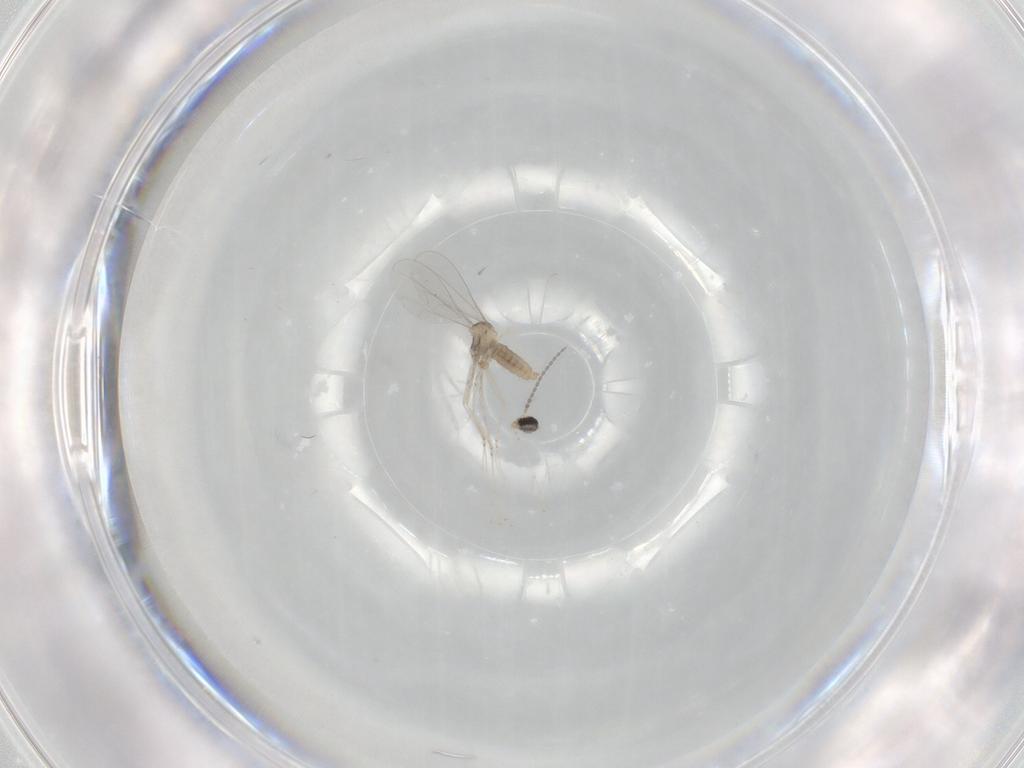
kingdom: Animalia
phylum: Arthropoda
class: Insecta
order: Diptera
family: Cecidomyiidae
